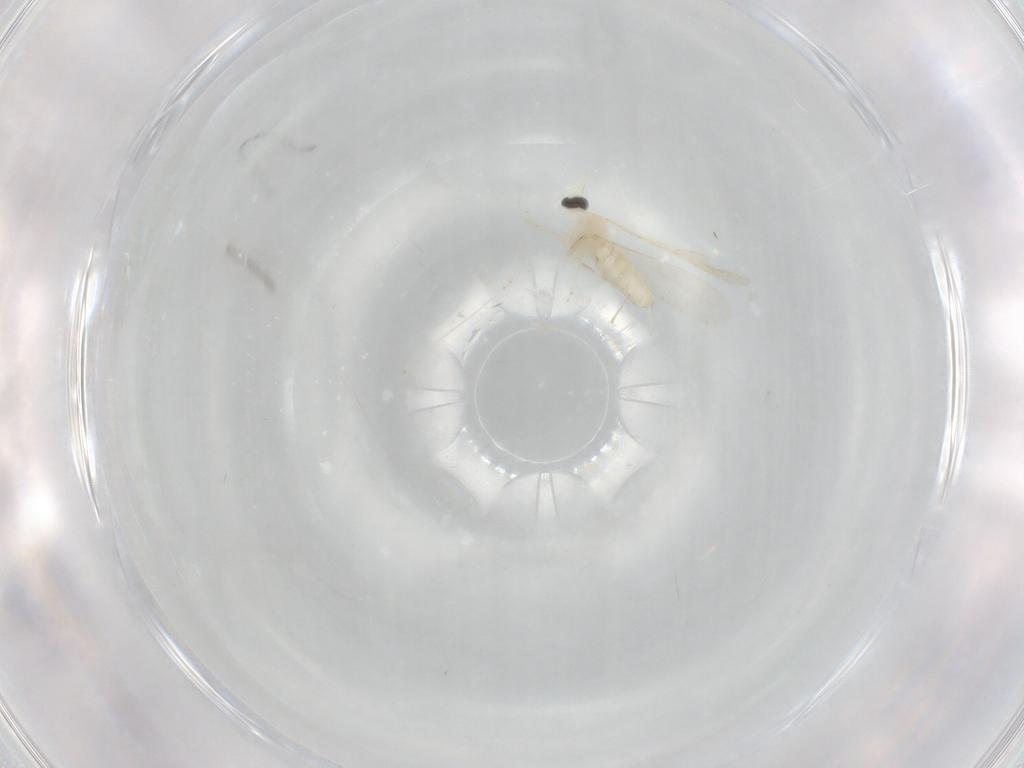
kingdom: Animalia
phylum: Arthropoda
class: Insecta
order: Diptera
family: Cecidomyiidae
